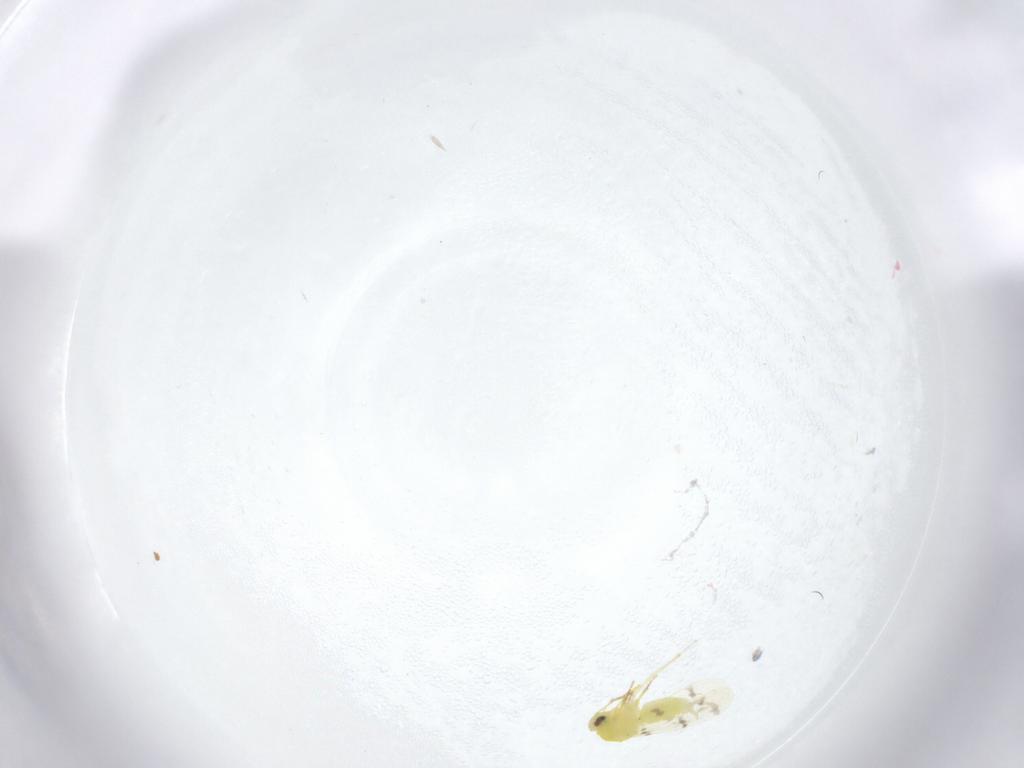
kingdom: Animalia
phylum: Arthropoda
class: Insecta
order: Hemiptera
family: Aleyrodidae
